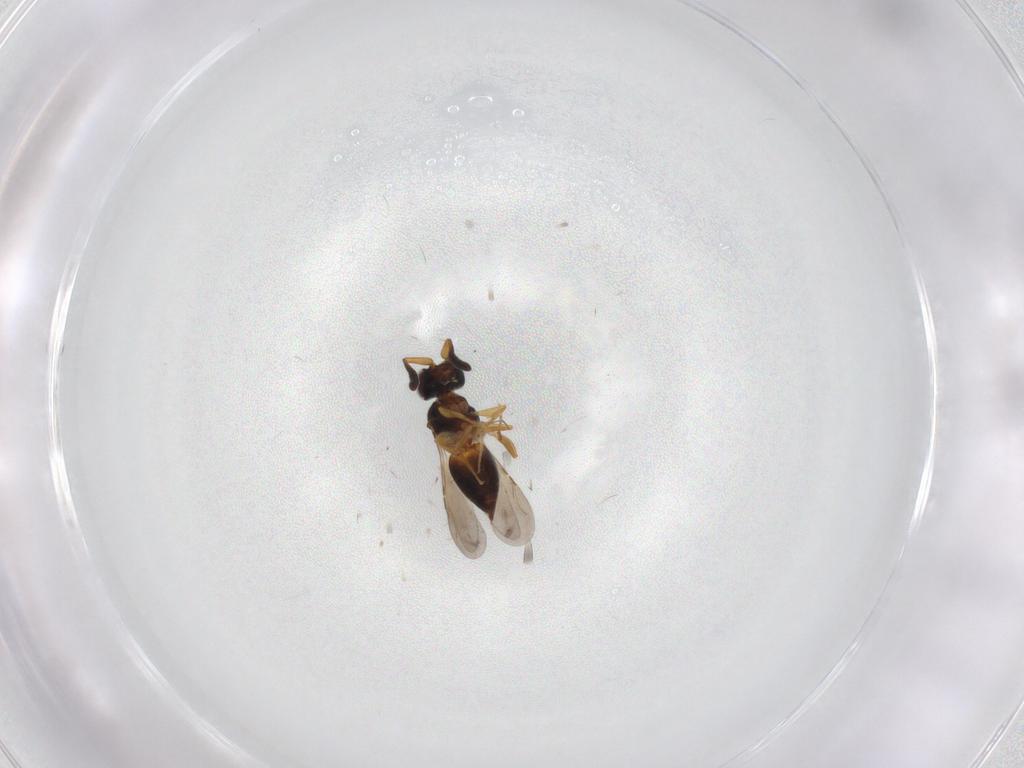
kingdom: Animalia
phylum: Arthropoda
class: Insecta
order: Hymenoptera
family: Ceraphronidae
